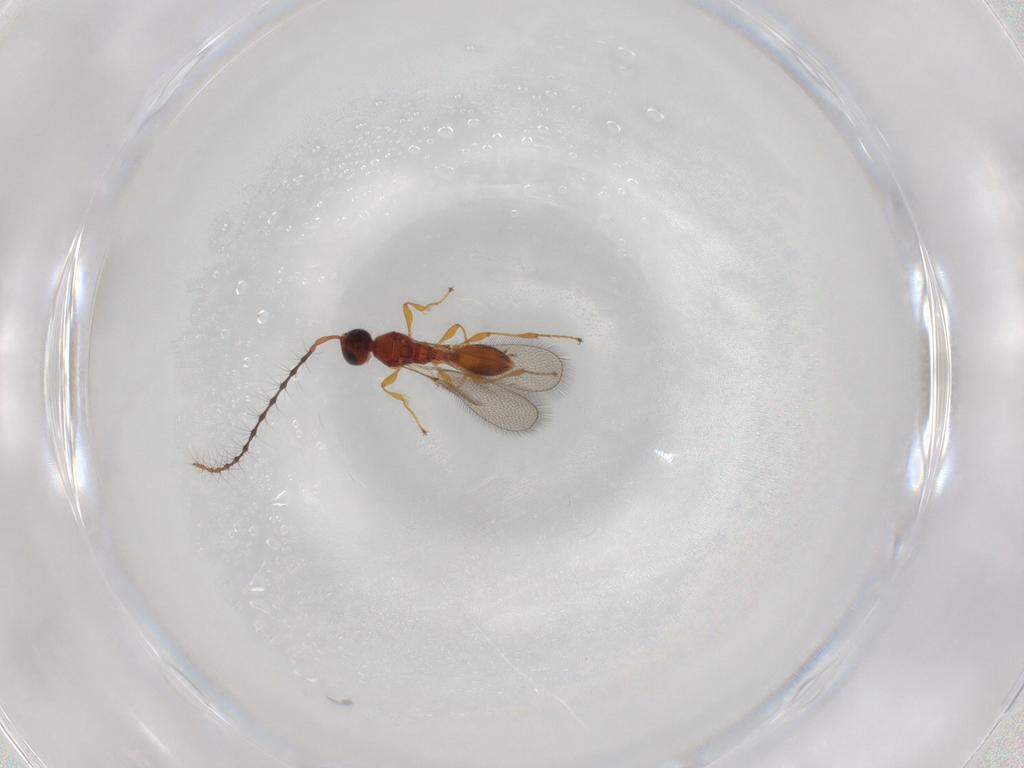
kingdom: Animalia
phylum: Arthropoda
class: Insecta
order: Hymenoptera
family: Diapriidae
